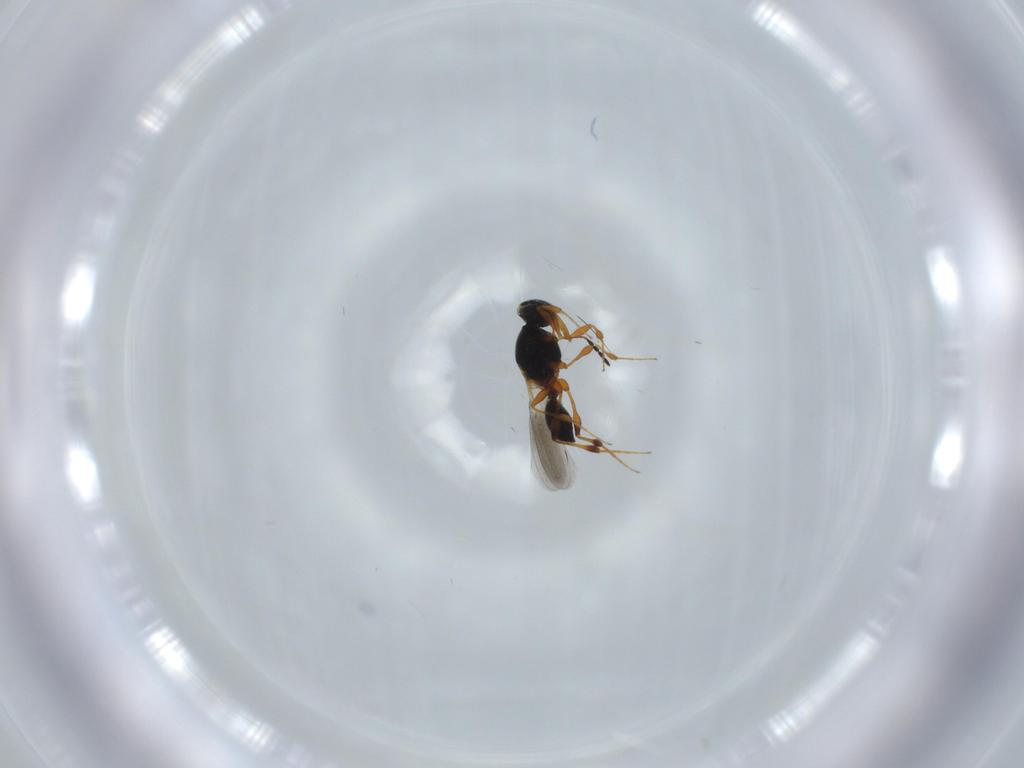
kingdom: Animalia
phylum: Arthropoda
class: Insecta
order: Hymenoptera
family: Platygastridae
